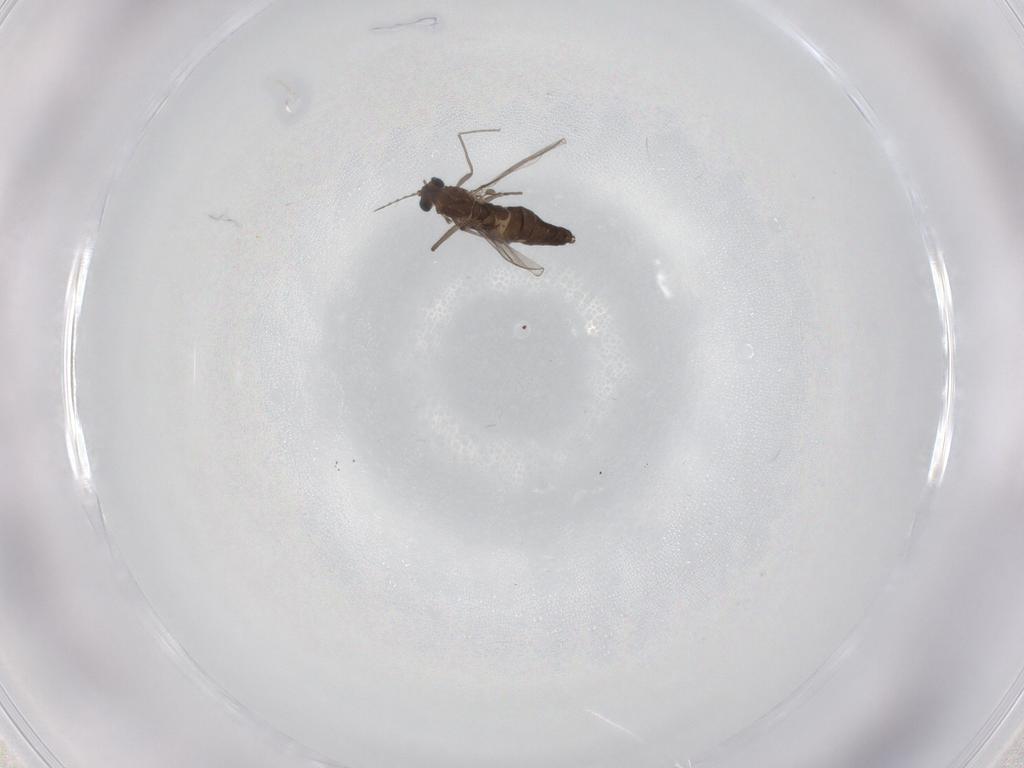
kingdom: Animalia
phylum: Arthropoda
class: Insecta
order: Diptera
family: Chironomidae
